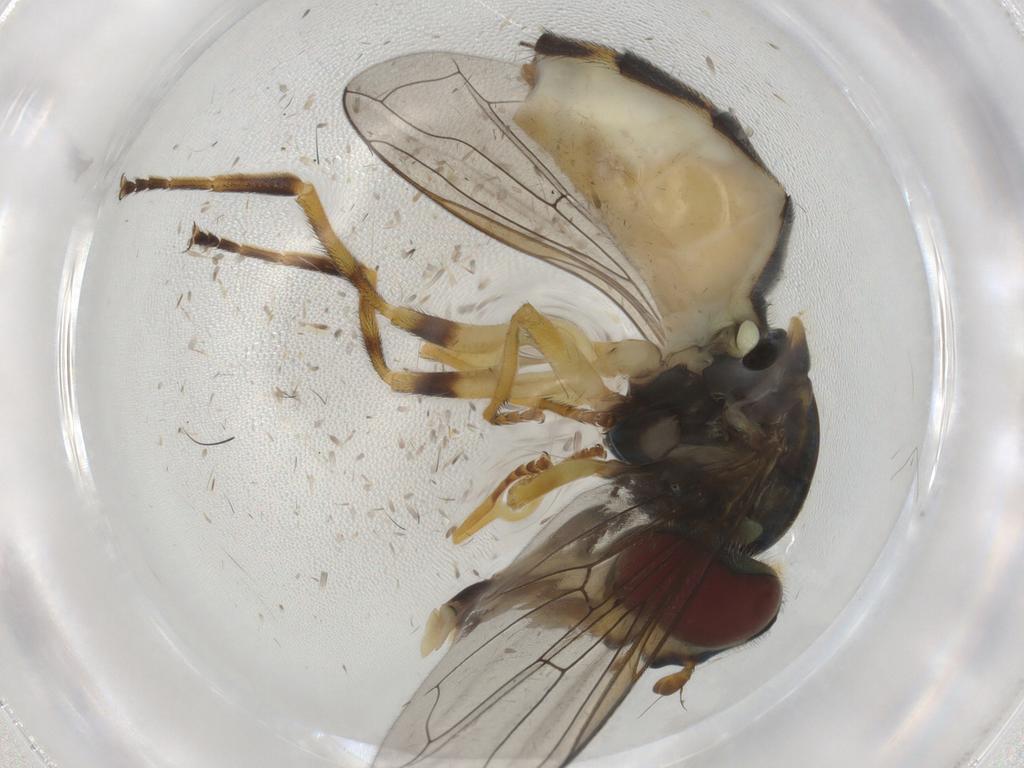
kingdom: Animalia
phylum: Arthropoda
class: Insecta
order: Diptera
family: Syrphidae
